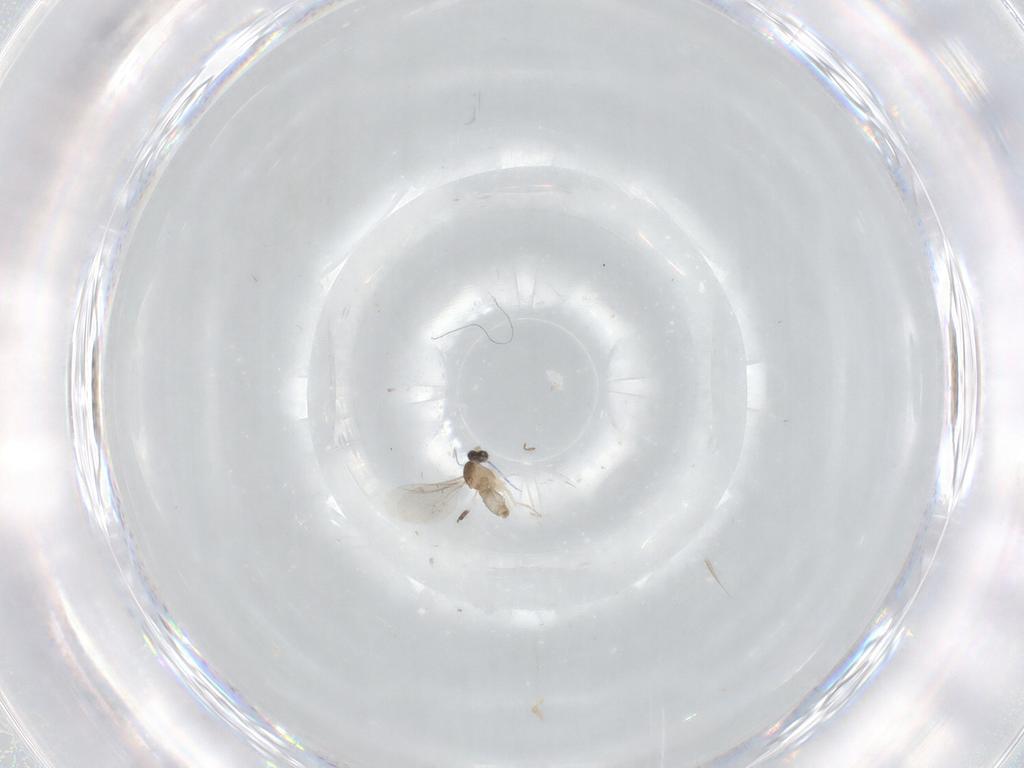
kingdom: Animalia
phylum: Arthropoda
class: Insecta
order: Diptera
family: Cecidomyiidae
